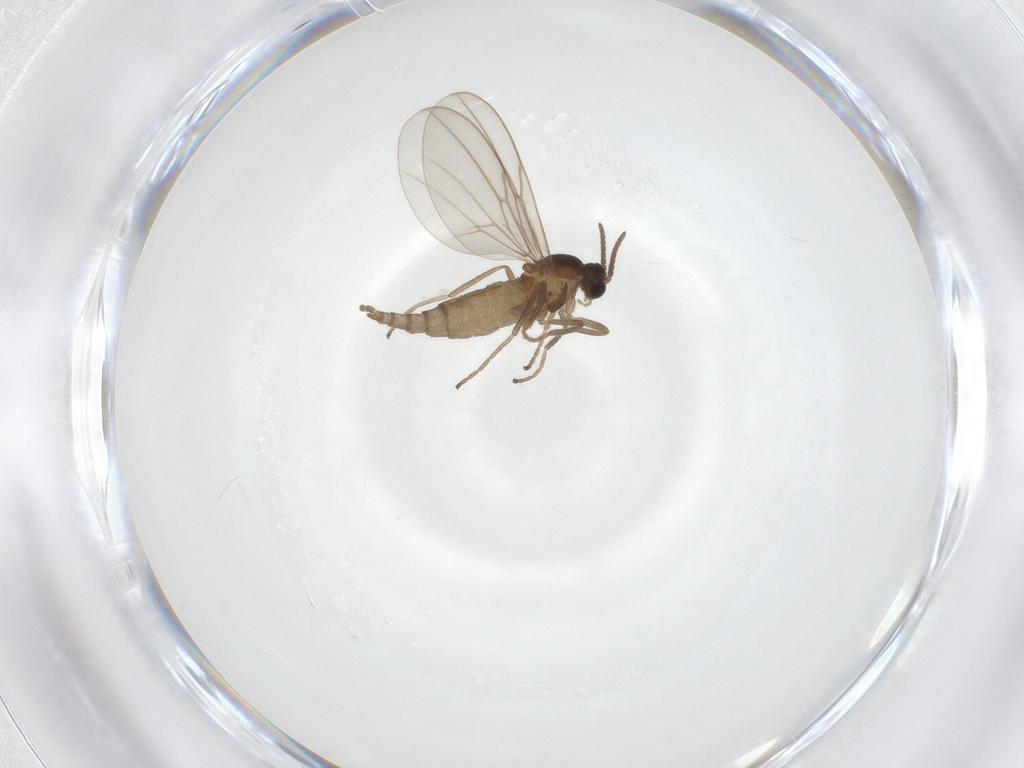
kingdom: Animalia
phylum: Arthropoda
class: Insecta
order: Diptera
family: Cecidomyiidae
